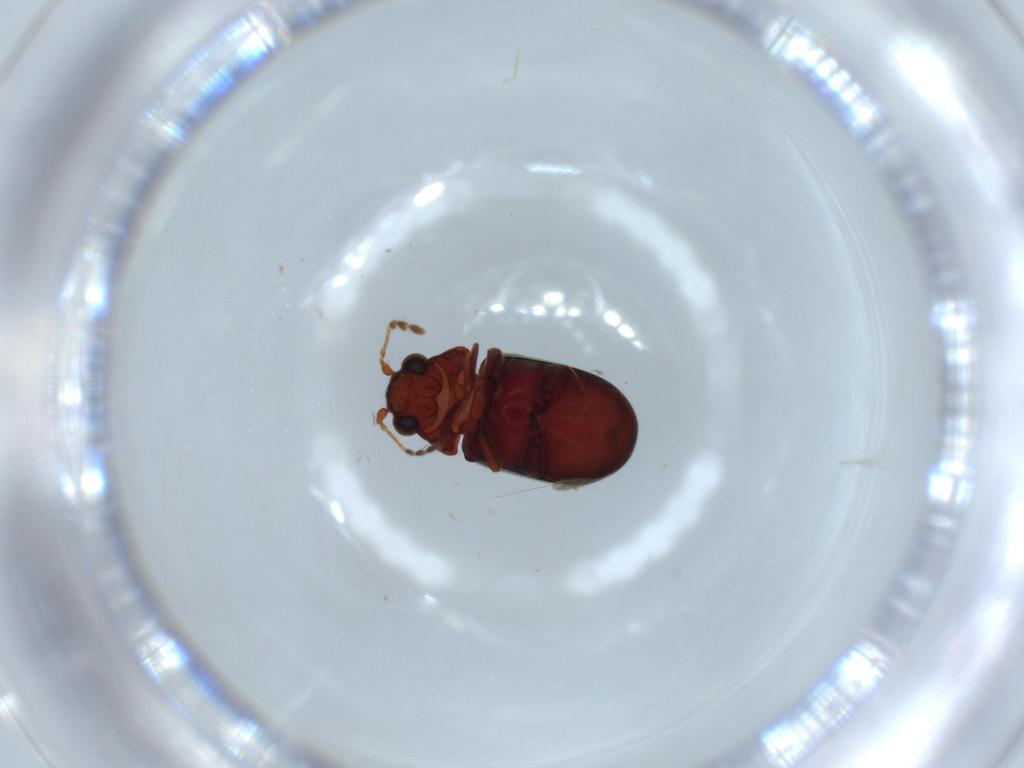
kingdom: Animalia
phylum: Arthropoda
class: Insecta
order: Coleoptera
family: Ptinidae
